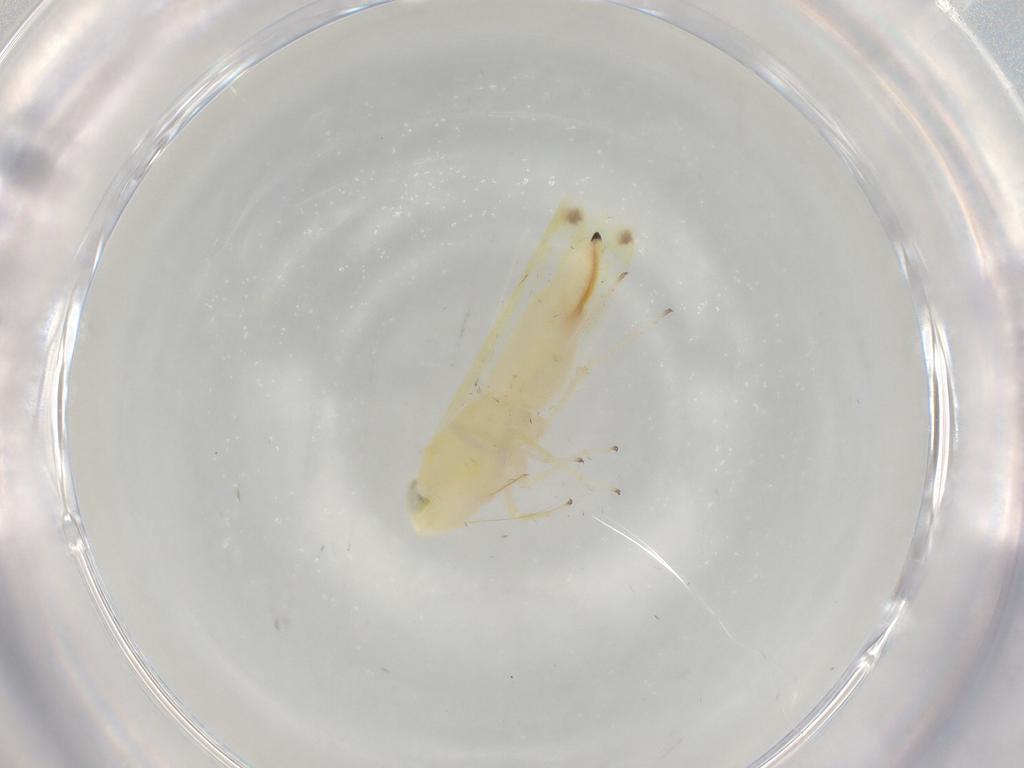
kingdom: Animalia
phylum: Arthropoda
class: Insecta
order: Hemiptera
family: Cicadellidae
